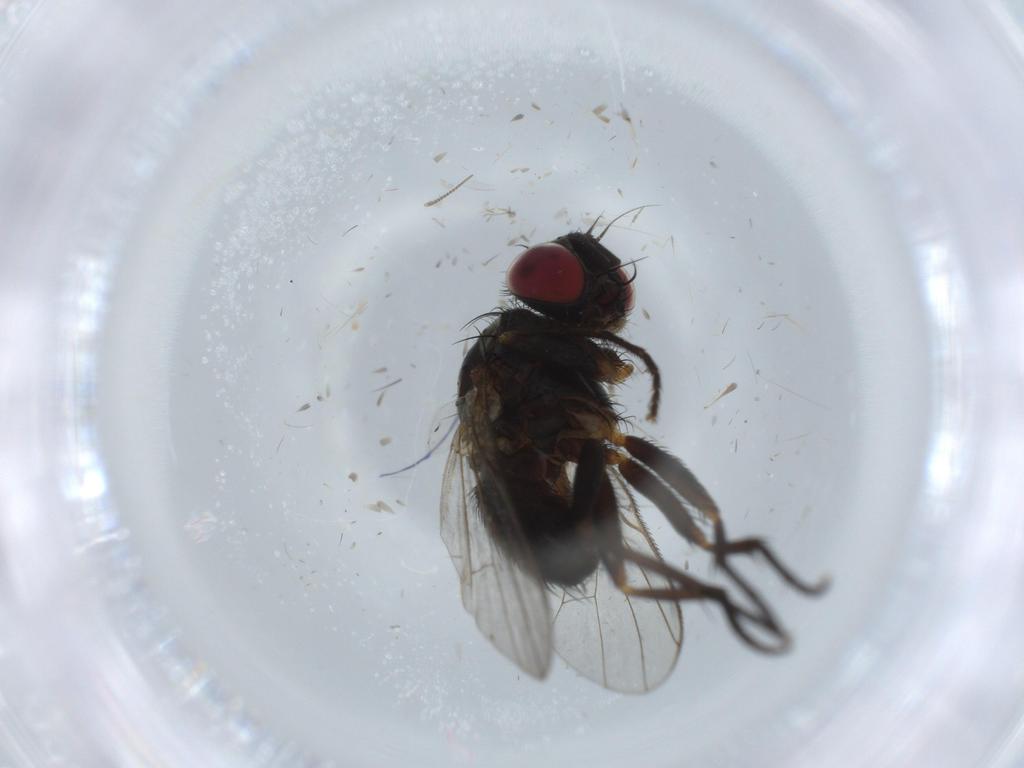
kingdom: Animalia
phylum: Arthropoda
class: Insecta
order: Diptera
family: Muscidae
